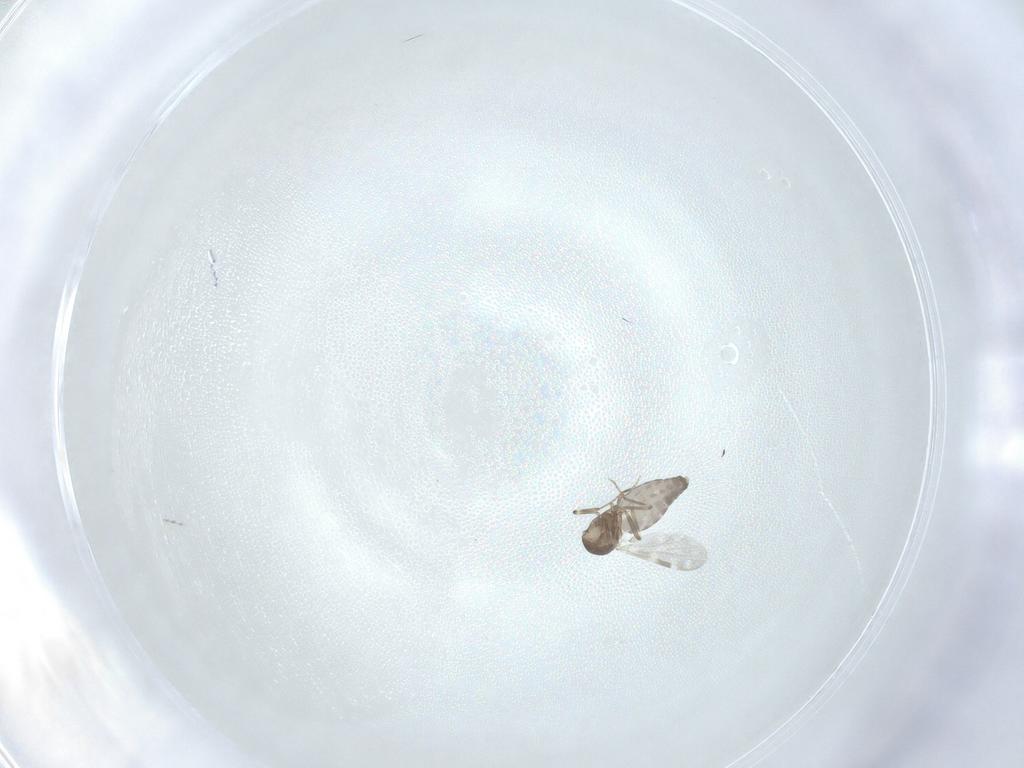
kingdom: Animalia
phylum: Arthropoda
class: Insecta
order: Diptera
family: Ceratopogonidae
